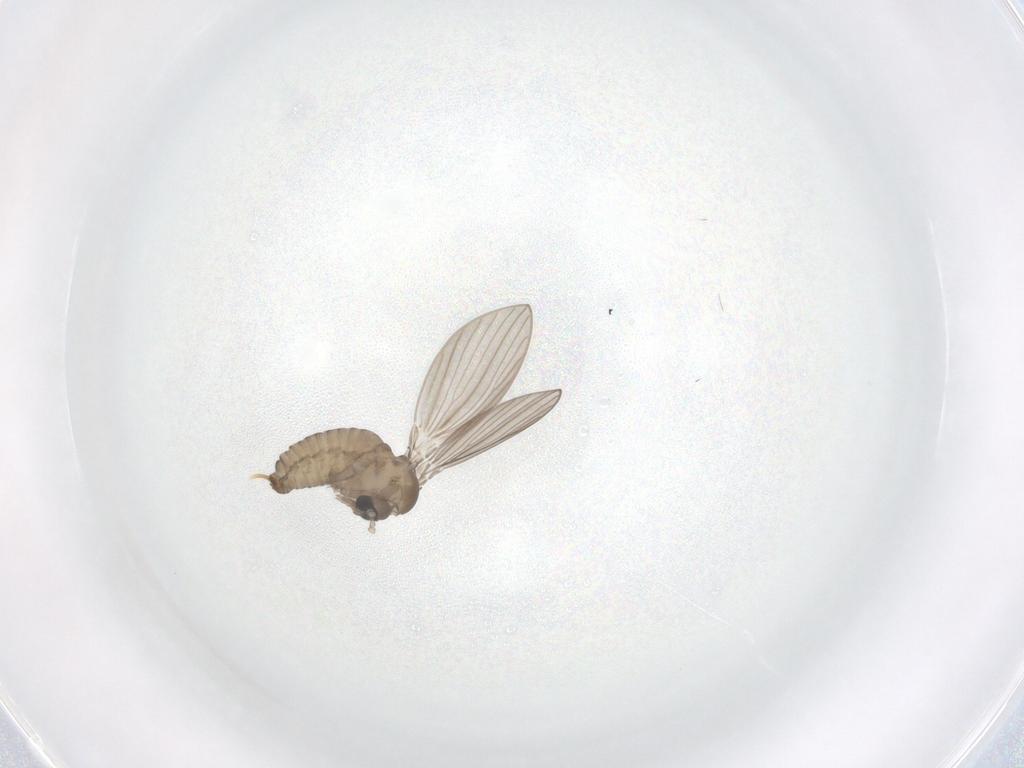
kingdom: Animalia
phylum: Arthropoda
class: Insecta
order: Diptera
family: Psychodidae
